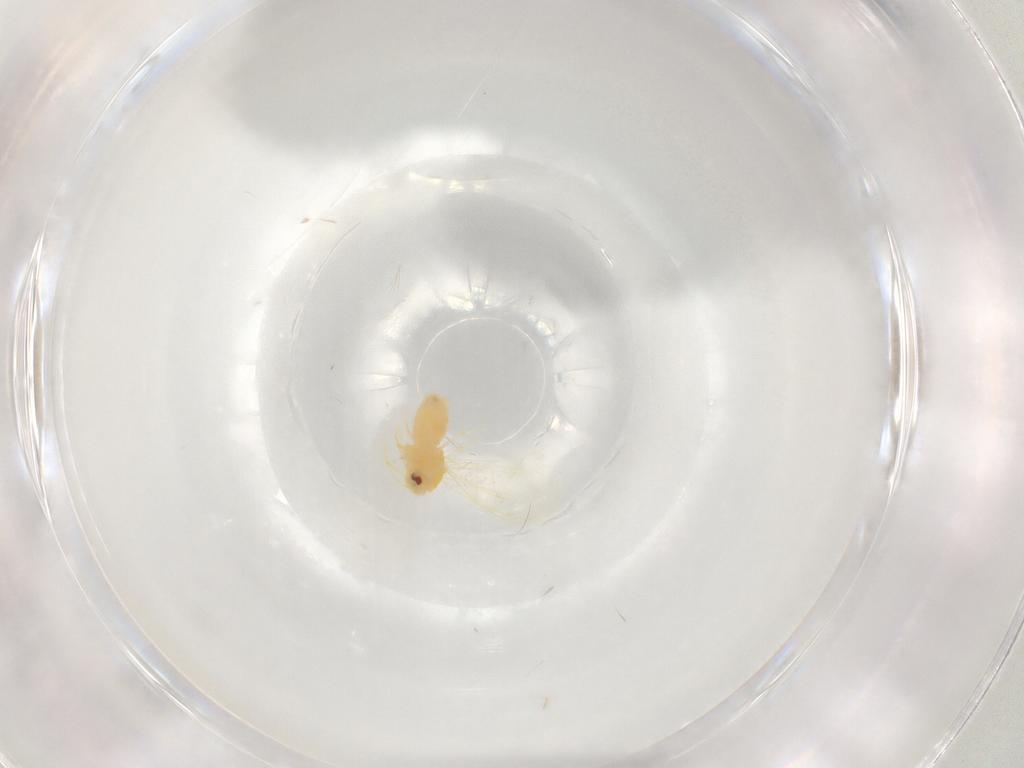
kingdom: Animalia
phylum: Arthropoda
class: Insecta
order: Hemiptera
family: Aleyrodidae
